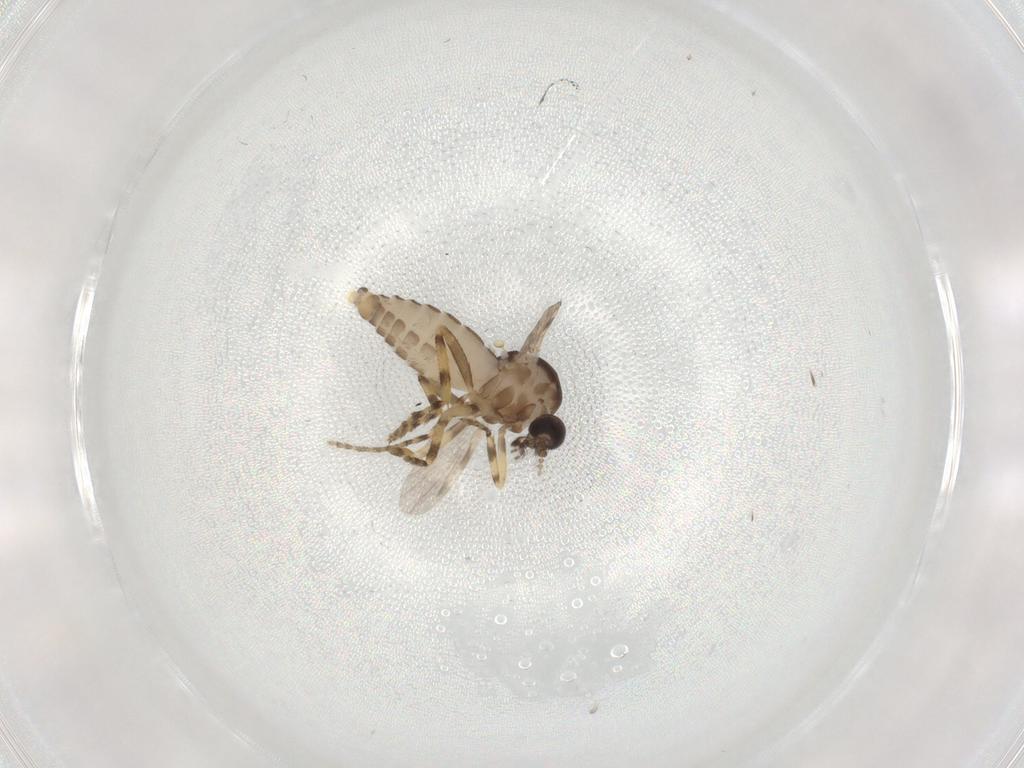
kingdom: Animalia
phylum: Arthropoda
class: Insecta
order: Diptera
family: Ceratopogonidae
